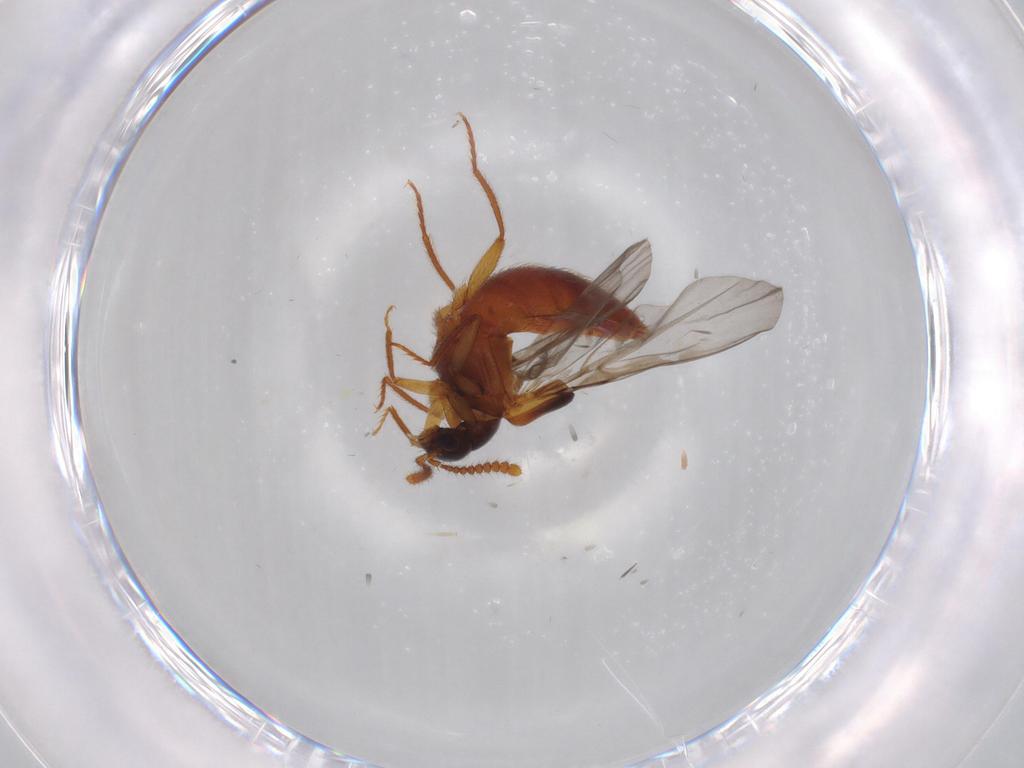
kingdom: Animalia
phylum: Arthropoda
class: Insecta
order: Coleoptera
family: Staphylinidae
